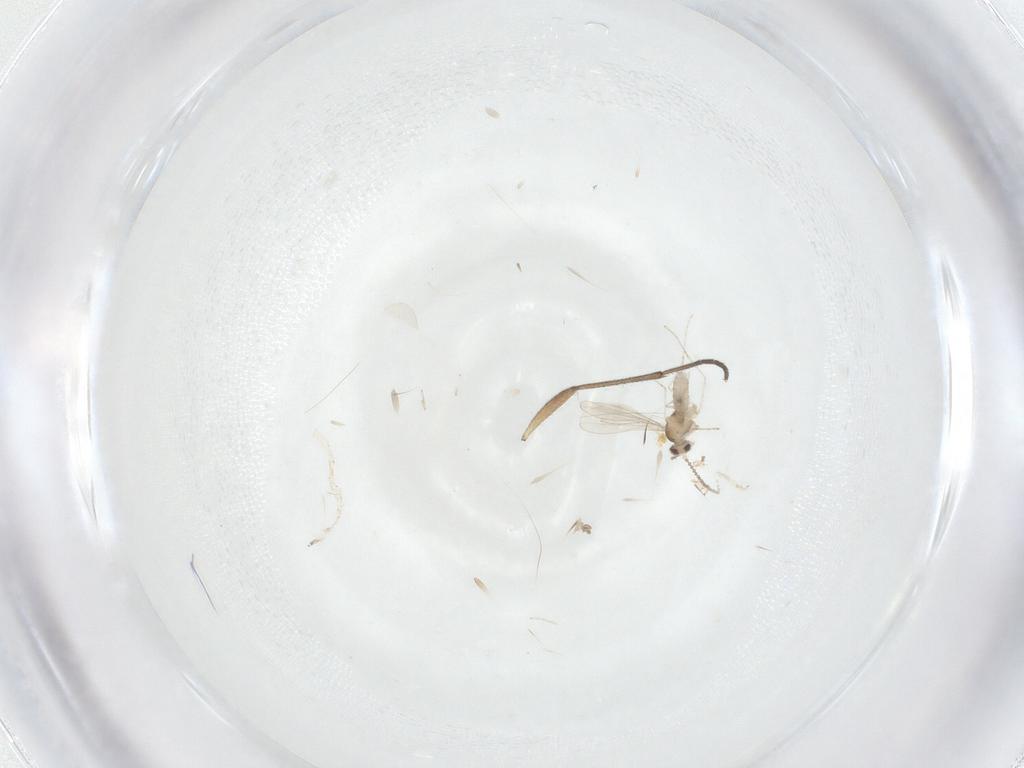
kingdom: Animalia
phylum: Arthropoda
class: Insecta
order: Diptera
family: Cecidomyiidae
